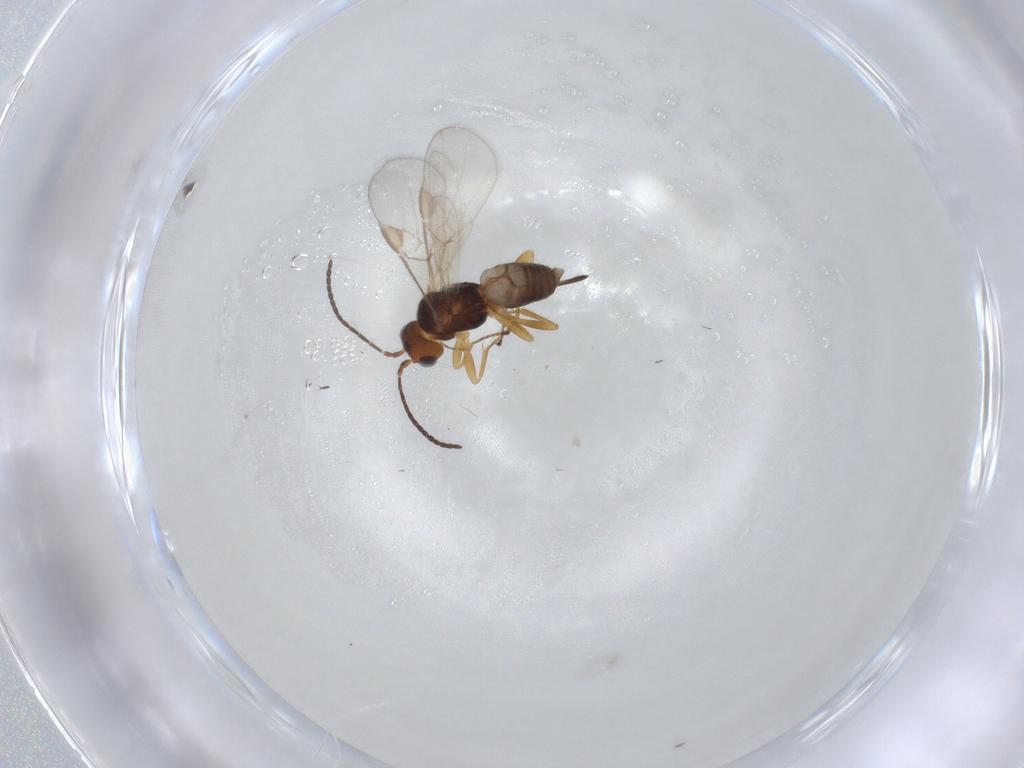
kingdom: Animalia
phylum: Arthropoda
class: Insecta
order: Hymenoptera
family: Braconidae
